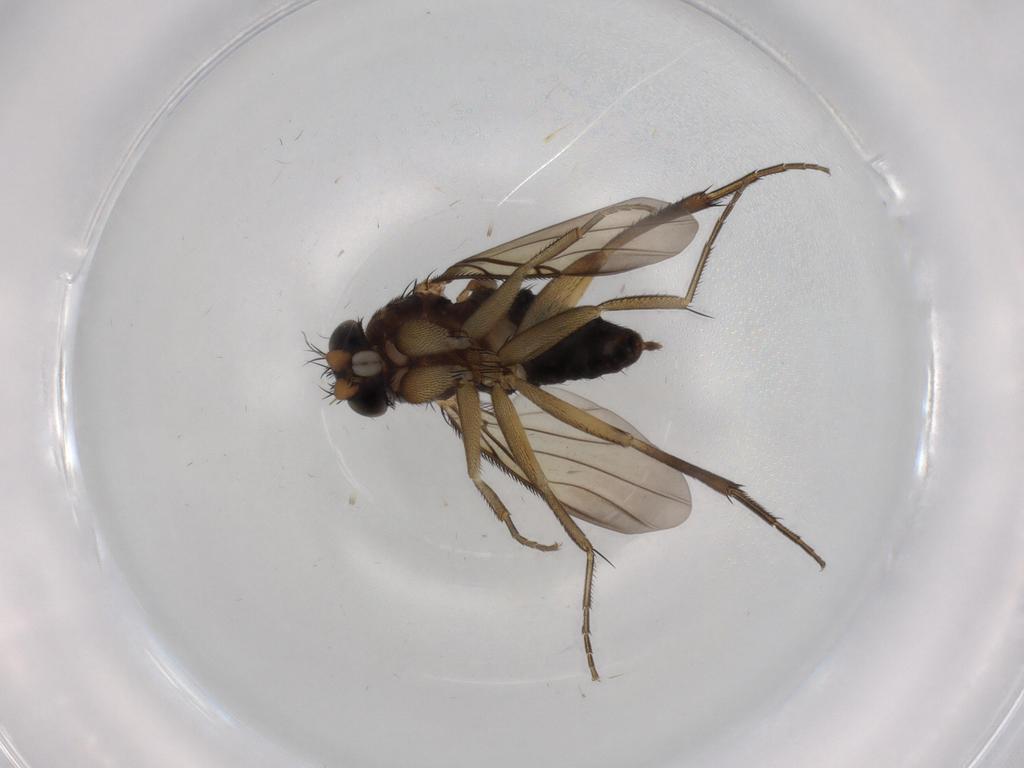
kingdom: Animalia
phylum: Arthropoda
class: Insecta
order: Diptera
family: Phoridae
